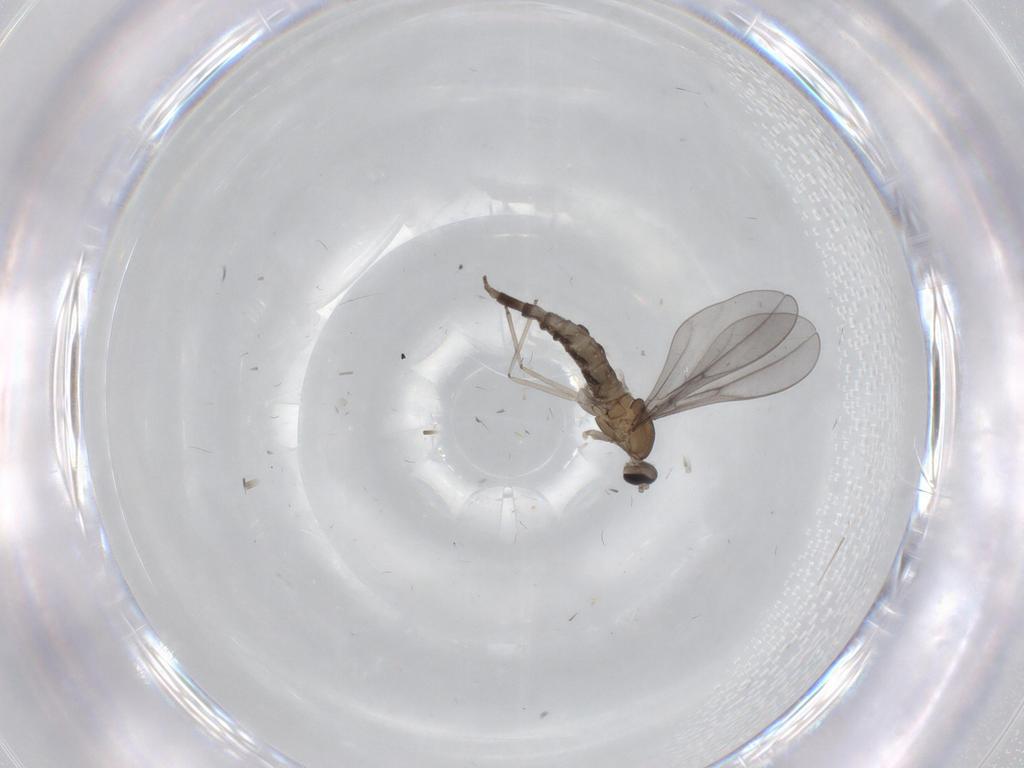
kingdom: Animalia
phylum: Arthropoda
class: Insecta
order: Diptera
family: Cecidomyiidae
